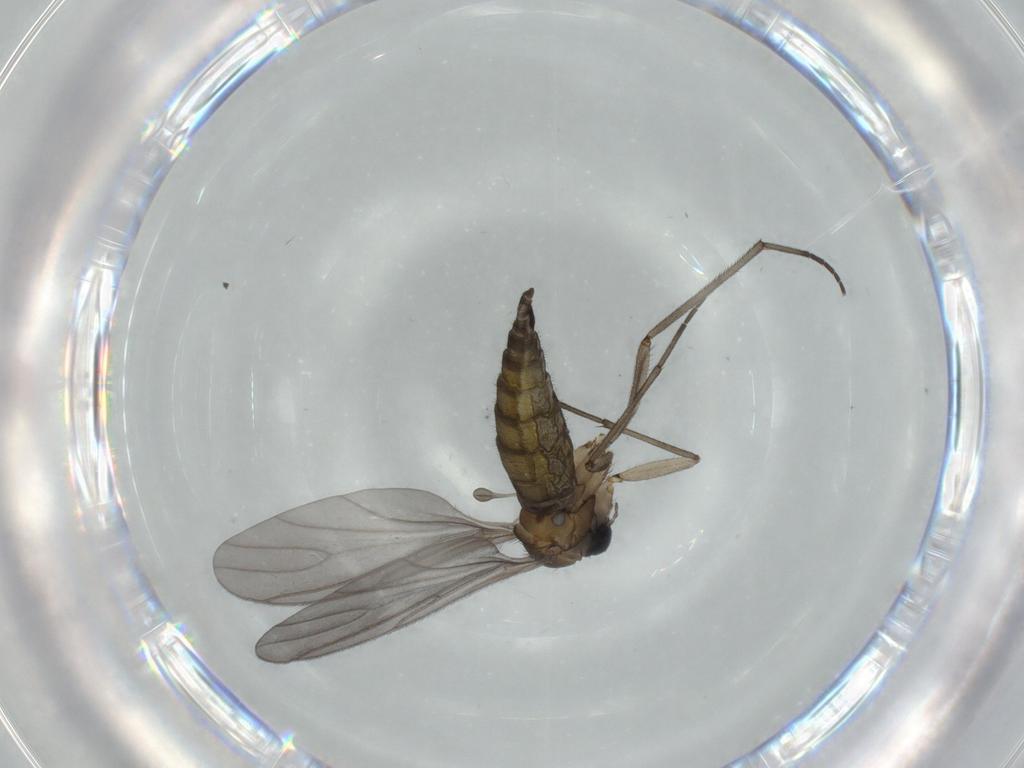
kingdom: Animalia
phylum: Arthropoda
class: Insecta
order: Diptera
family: Sciaridae
